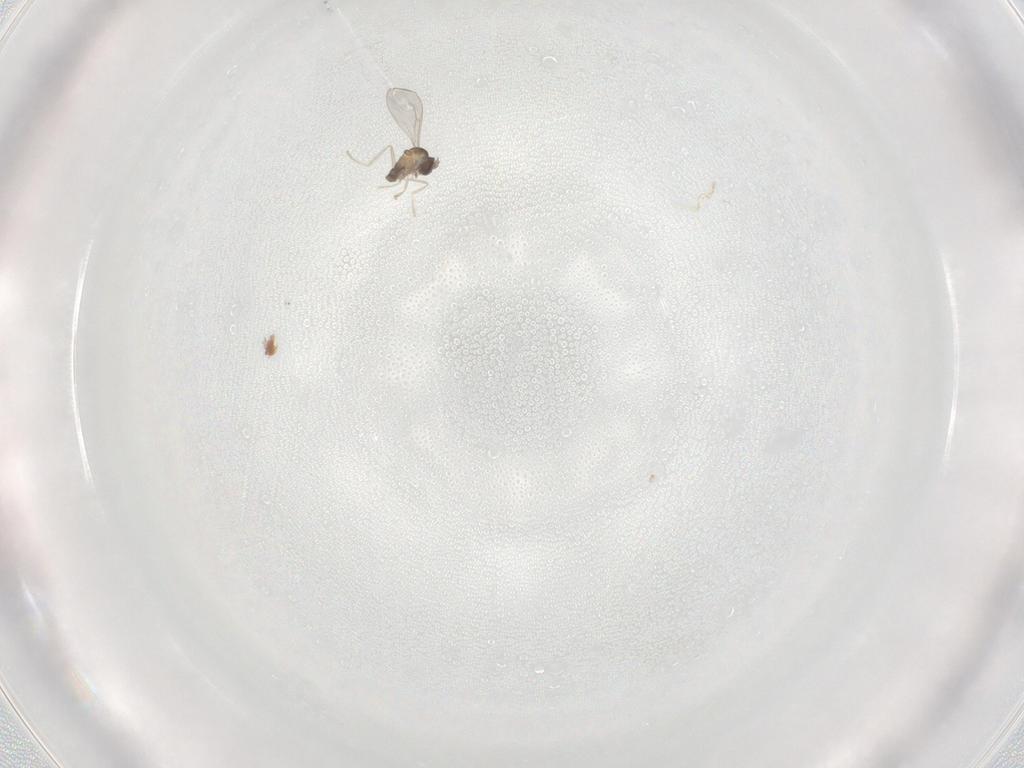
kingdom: Animalia
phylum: Arthropoda
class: Insecta
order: Diptera
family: Cecidomyiidae
